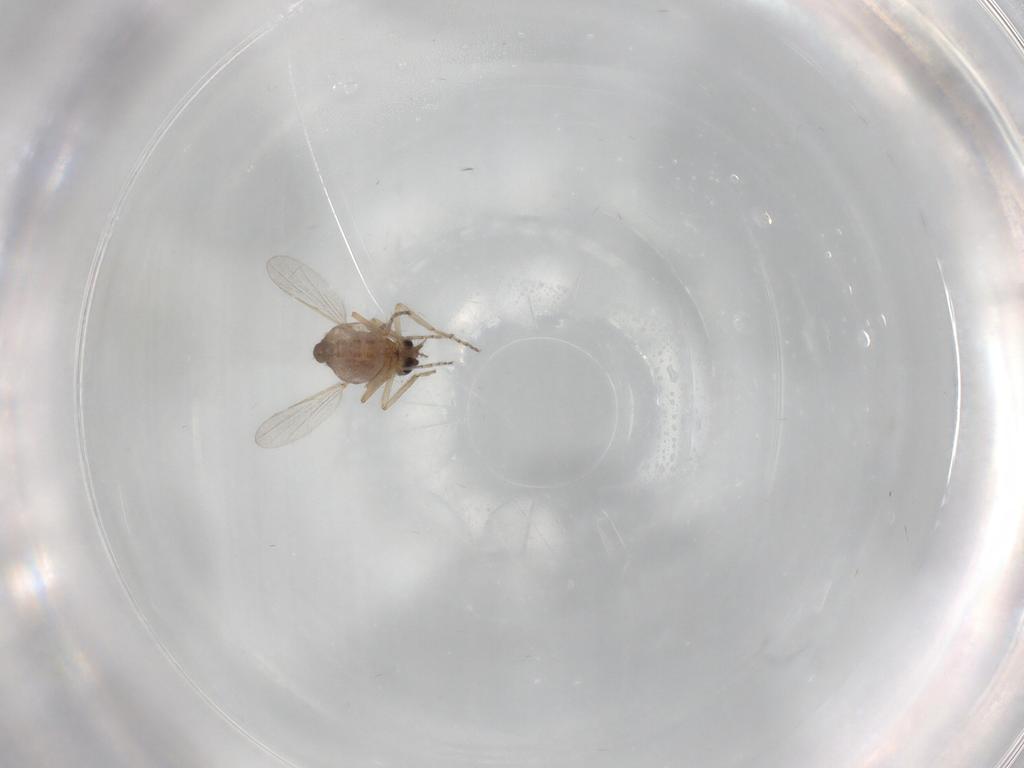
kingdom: Animalia
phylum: Arthropoda
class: Insecta
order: Diptera
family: Ceratopogonidae
